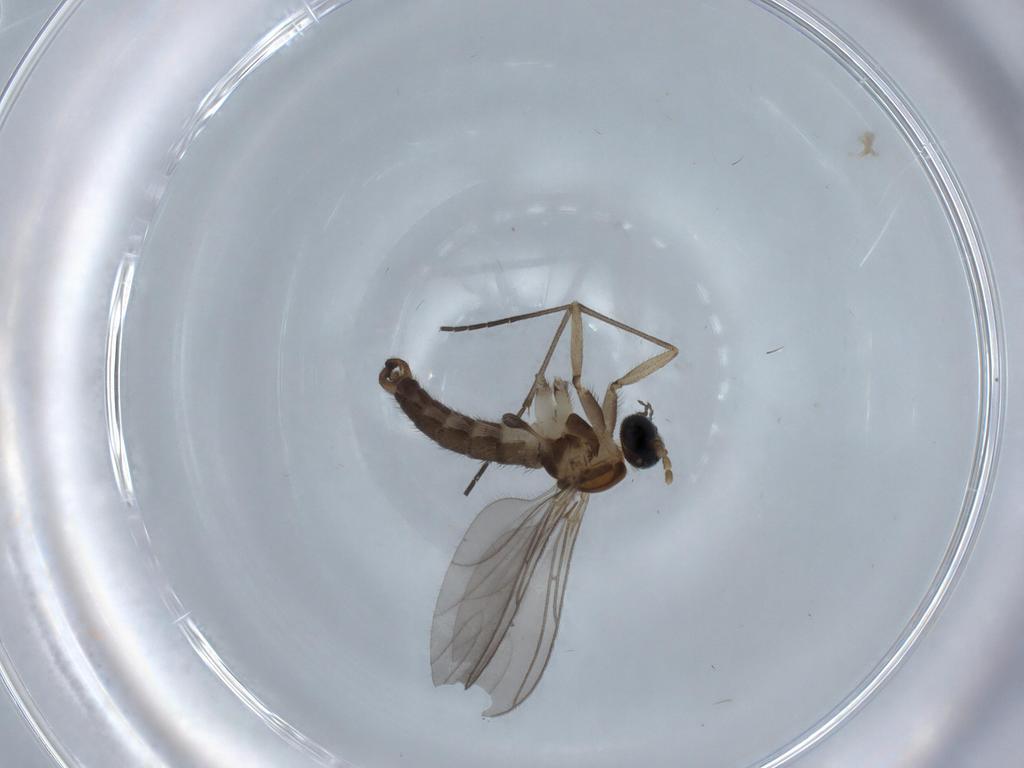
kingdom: Animalia
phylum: Arthropoda
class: Insecta
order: Diptera
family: Sciaridae
